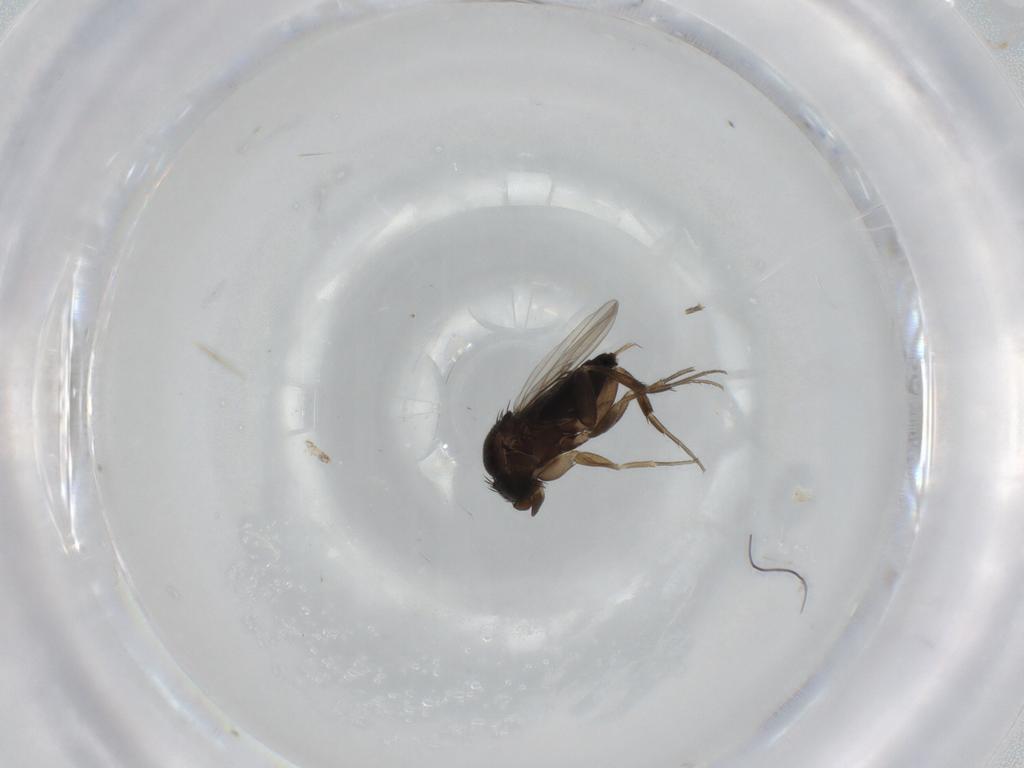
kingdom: Animalia
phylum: Arthropoda
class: Insecta
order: Diptera
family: Phoridae
